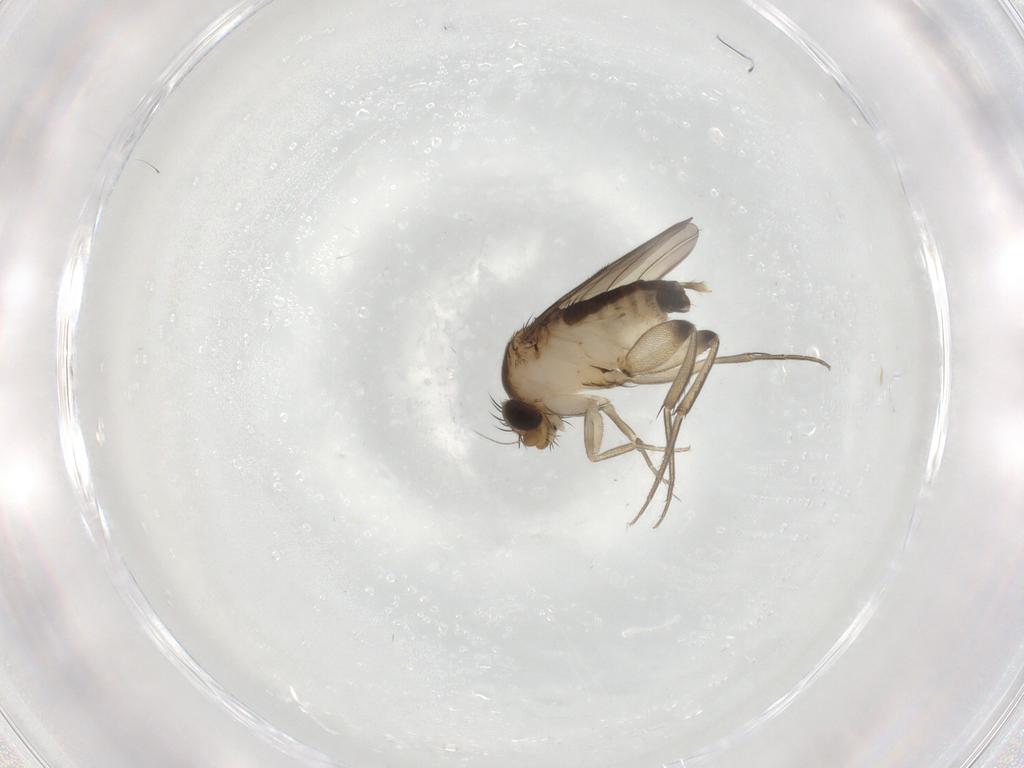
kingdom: Animalia
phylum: Arthropoda
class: Insecta
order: Diptera
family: Phoridae
